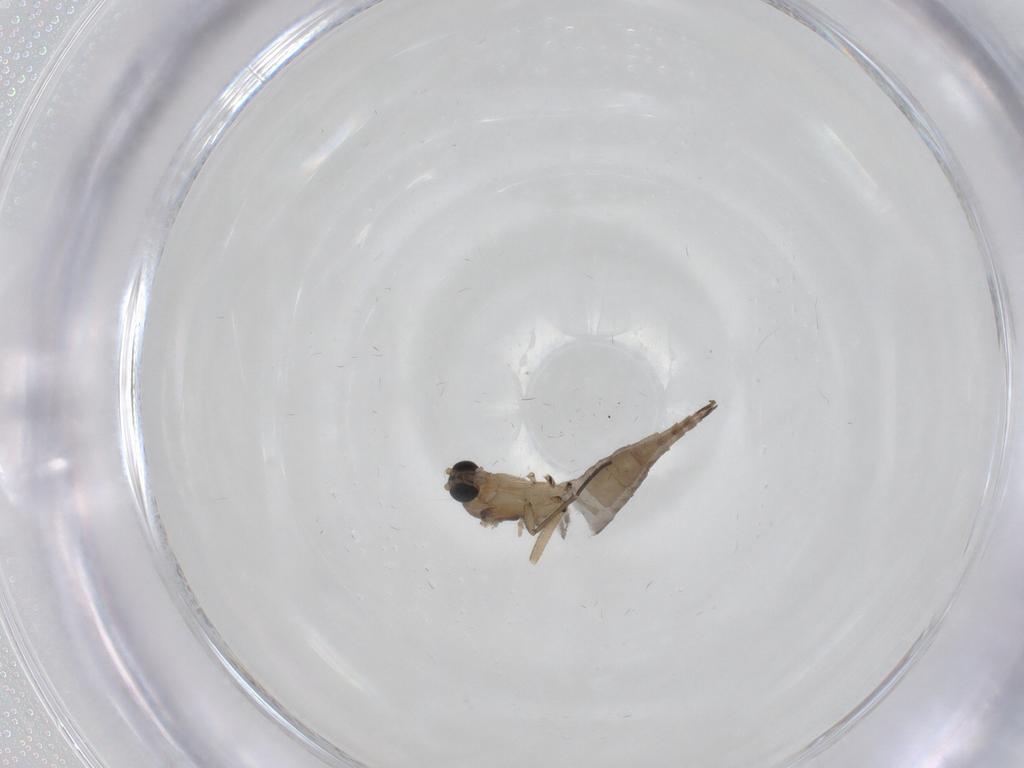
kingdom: Animalia
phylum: Arthropoda
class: Insecta
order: Diptera
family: Sciaridae
